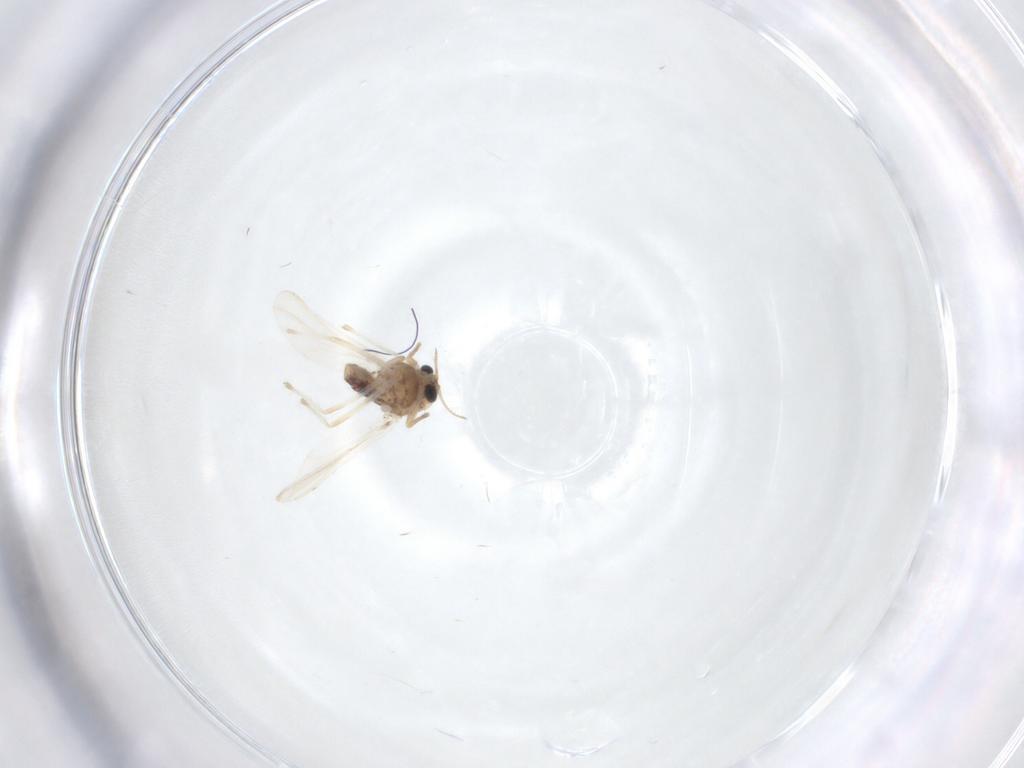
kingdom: Animalia
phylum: Arthropoda
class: Insecta
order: Diptera
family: Chironomidae
